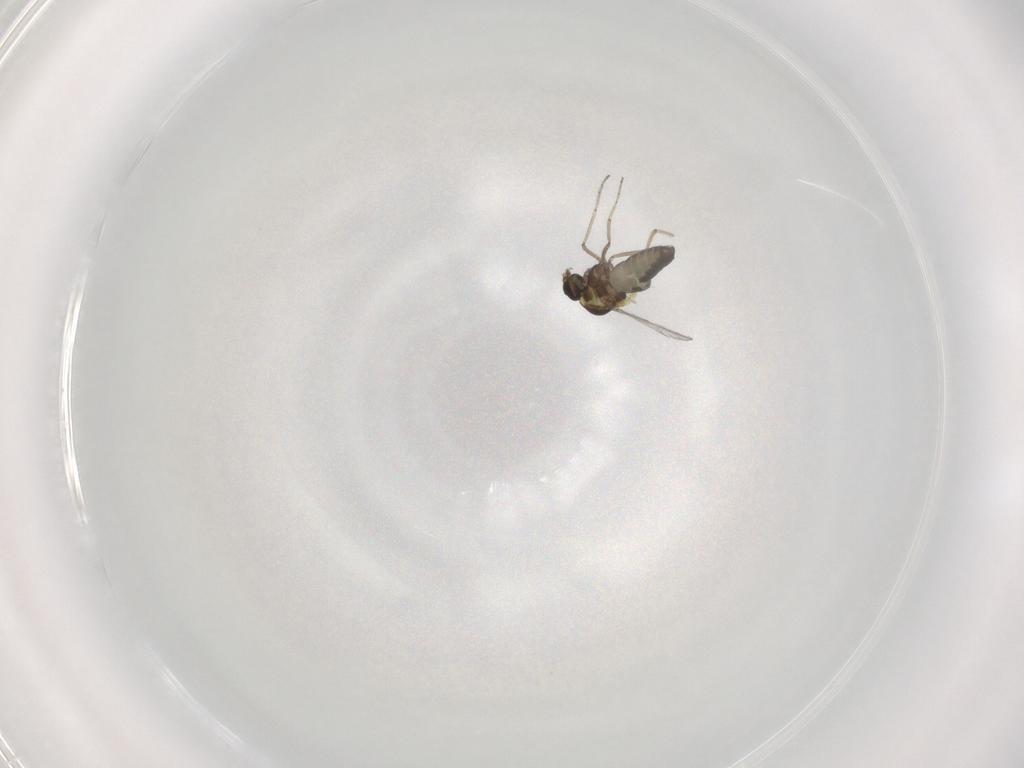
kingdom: Animalia
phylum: Arthropoda
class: Insecta
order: Diptera
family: Ceratopogonidae
